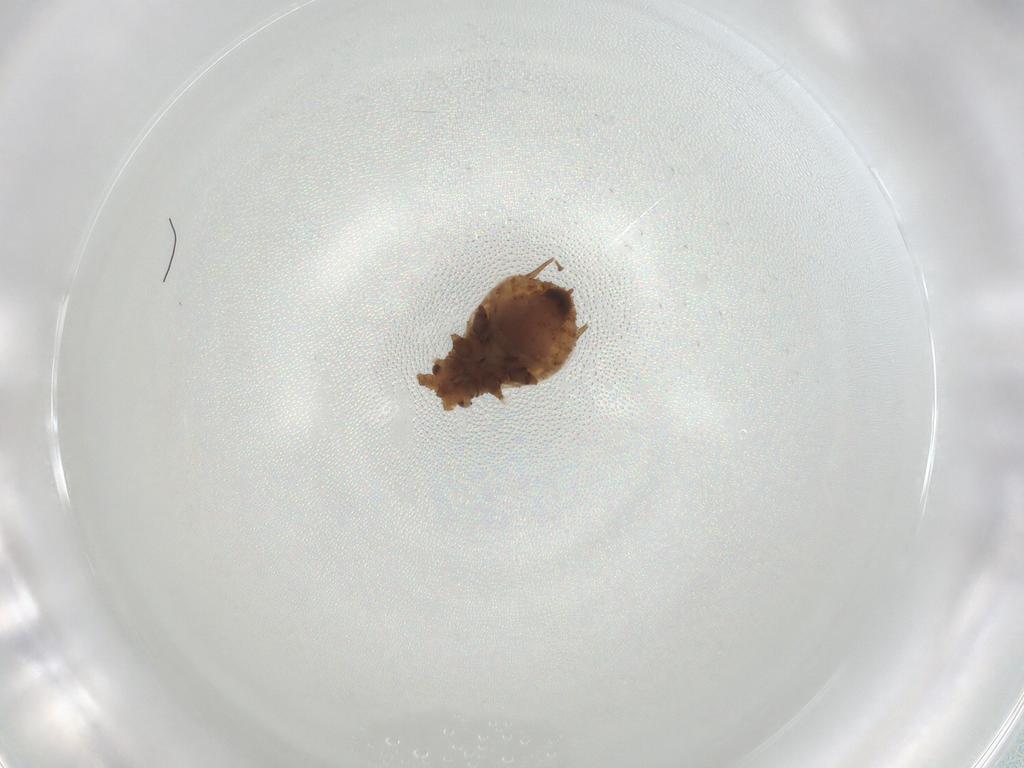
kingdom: Animalia
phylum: Arthropoda
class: Insecta
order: Hemiptera
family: Aphididae
